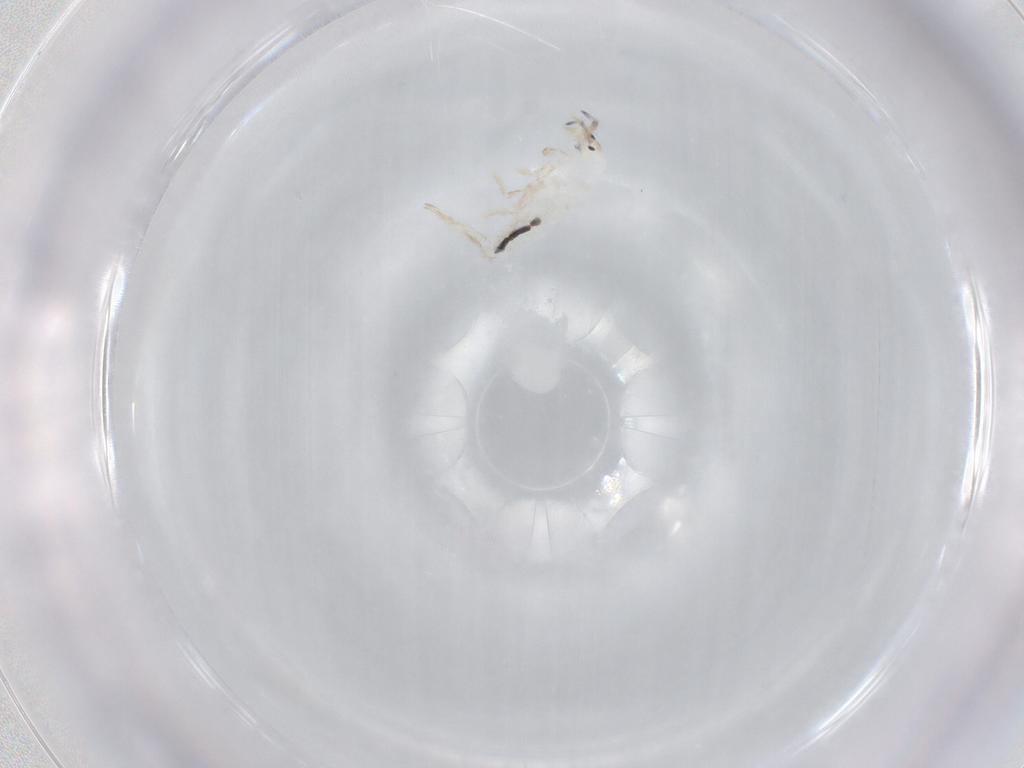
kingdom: Animalia
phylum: Arthropoda
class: Collembola
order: Entomobryomorpha
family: Entomobryidae
